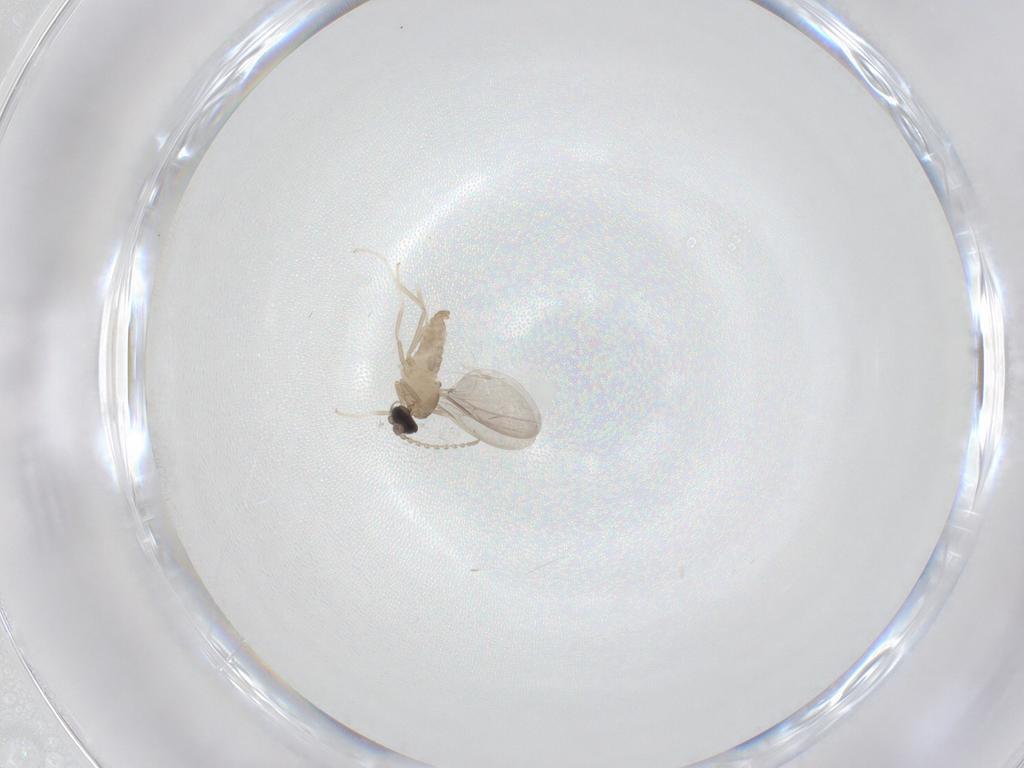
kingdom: Animalia
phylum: Arthropoda
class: Insecta
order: Diptera
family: Cecidomyiidae
